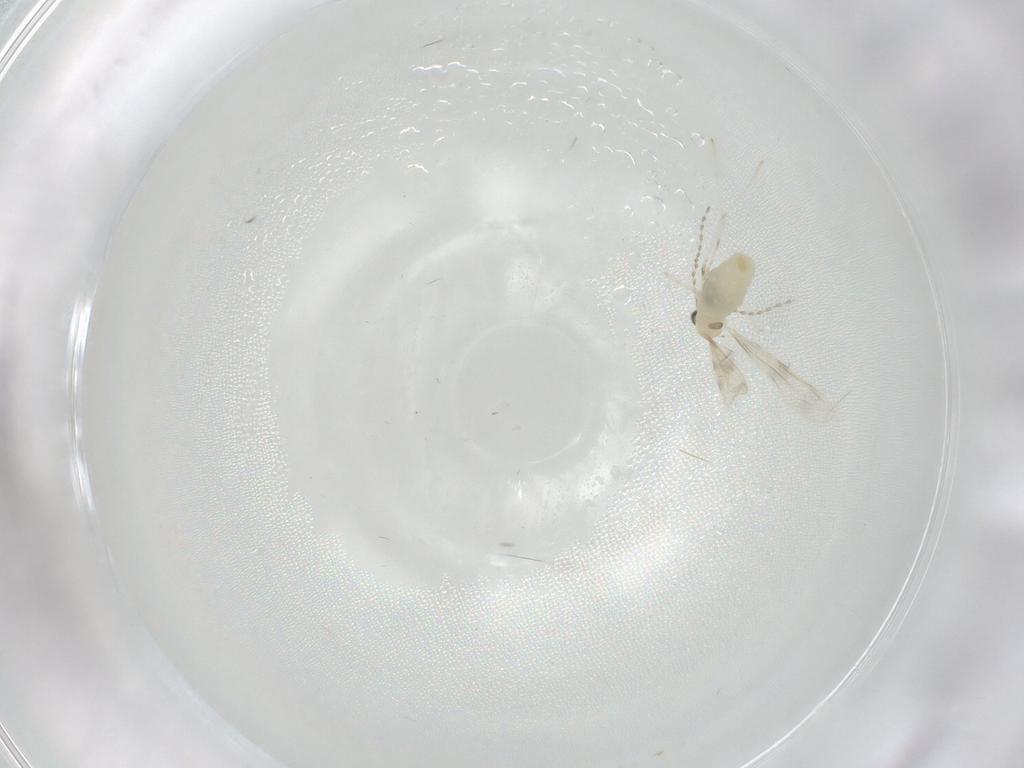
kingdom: Animalia
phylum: Arthropoda
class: Insecta
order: Diptera
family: Cecidomyiidae
